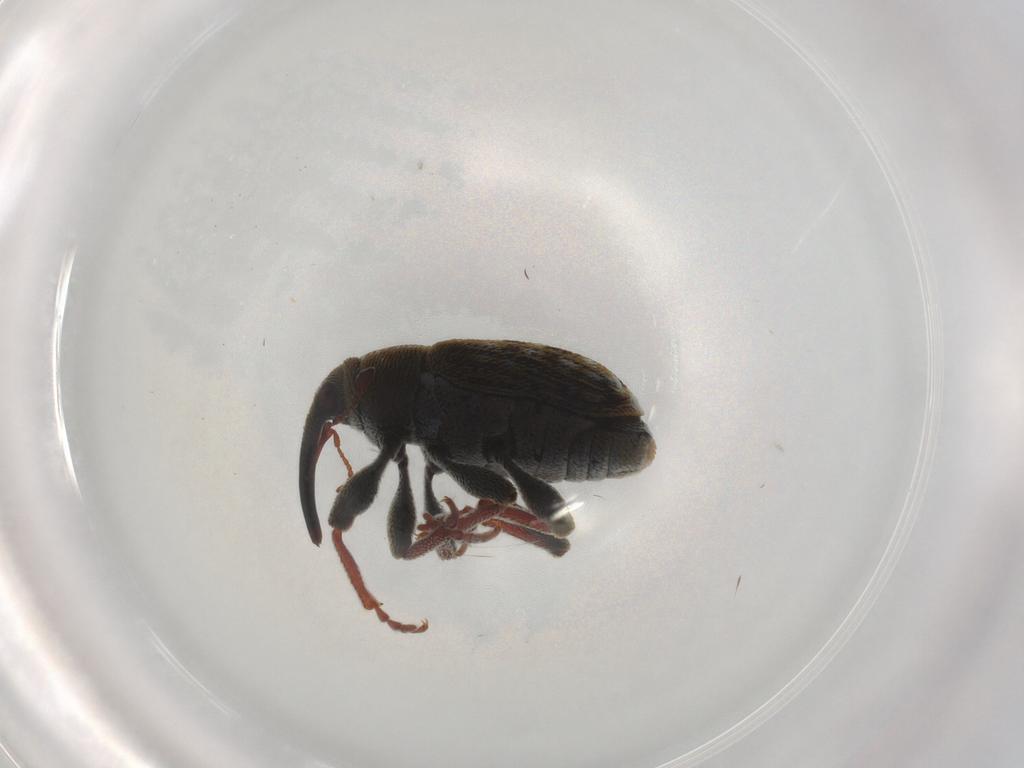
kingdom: Animalia
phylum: Arthropoda
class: Insecta
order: Coleoptera
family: Curculionidae
